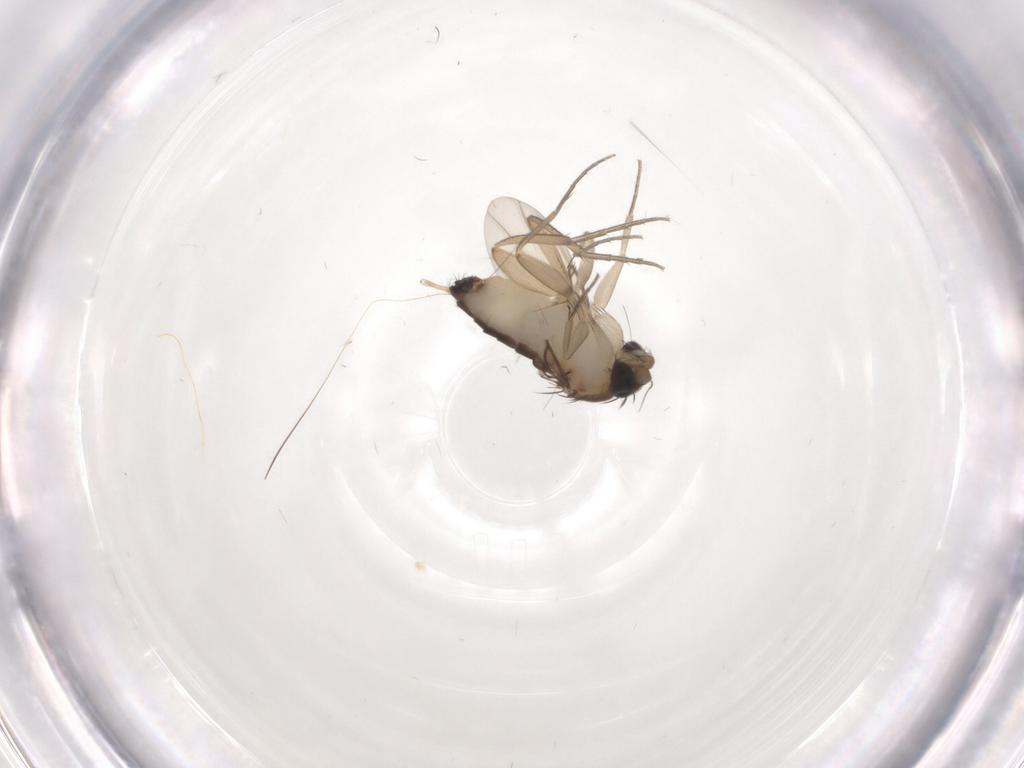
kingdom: Animalia
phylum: Arthropoda
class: Insecta
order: Diptera
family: Phoridae
